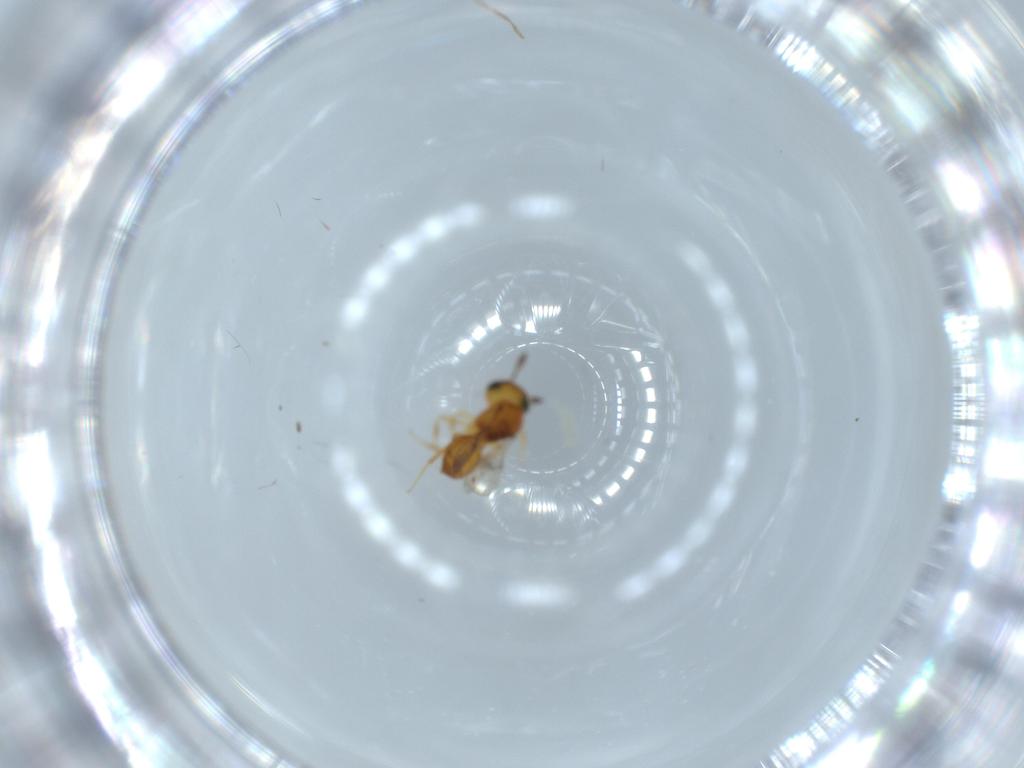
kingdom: Animalia
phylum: Arthropoda
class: Insecta
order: Hymenoptera
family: Scelionidae
